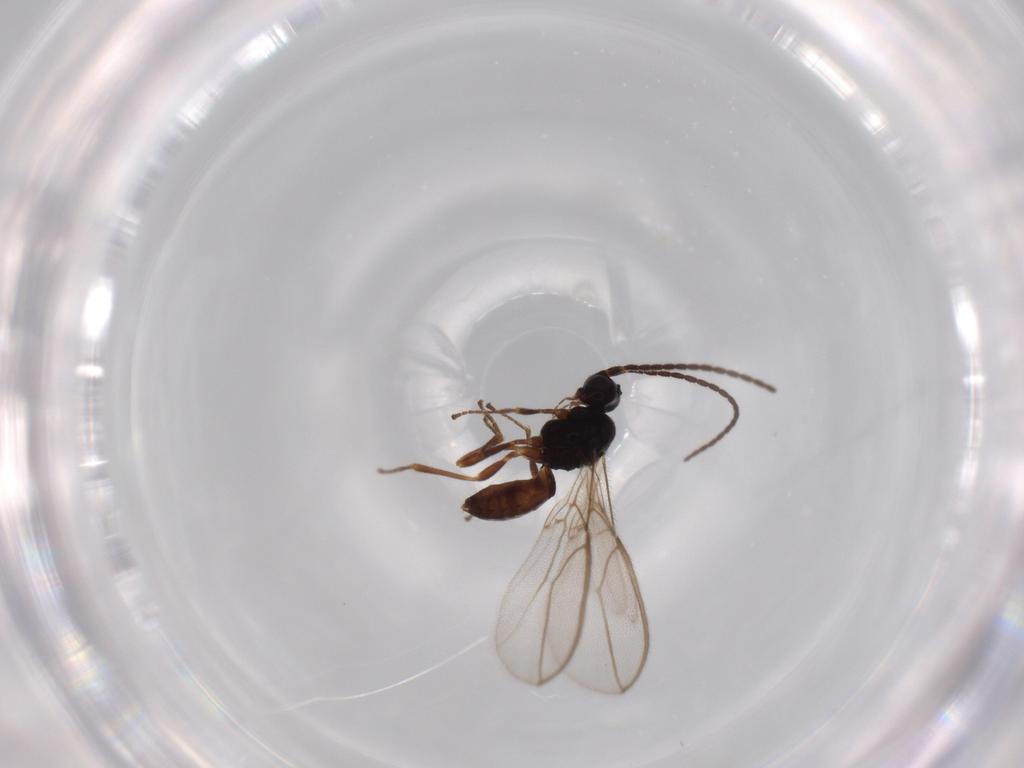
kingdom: Animalia
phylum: Arthropoda
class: Insecta
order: Hymenoptera
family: Braconidae
